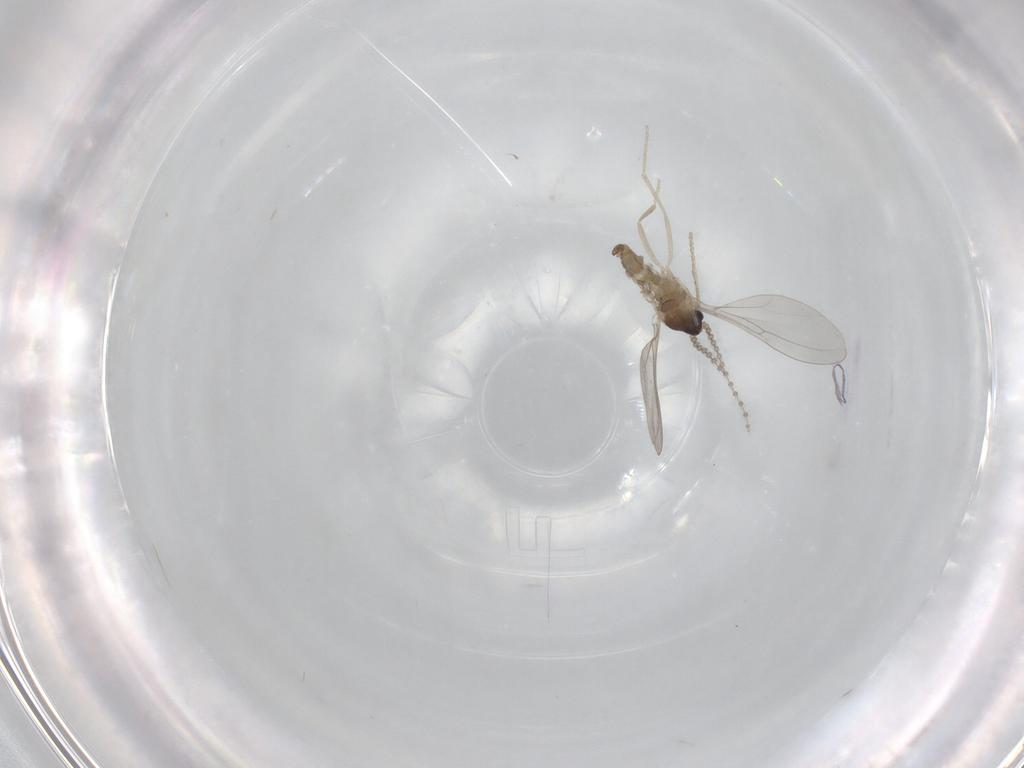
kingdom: Animalia
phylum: Arthropoda
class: Insecta
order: Diptera
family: Cecidomyiidae
